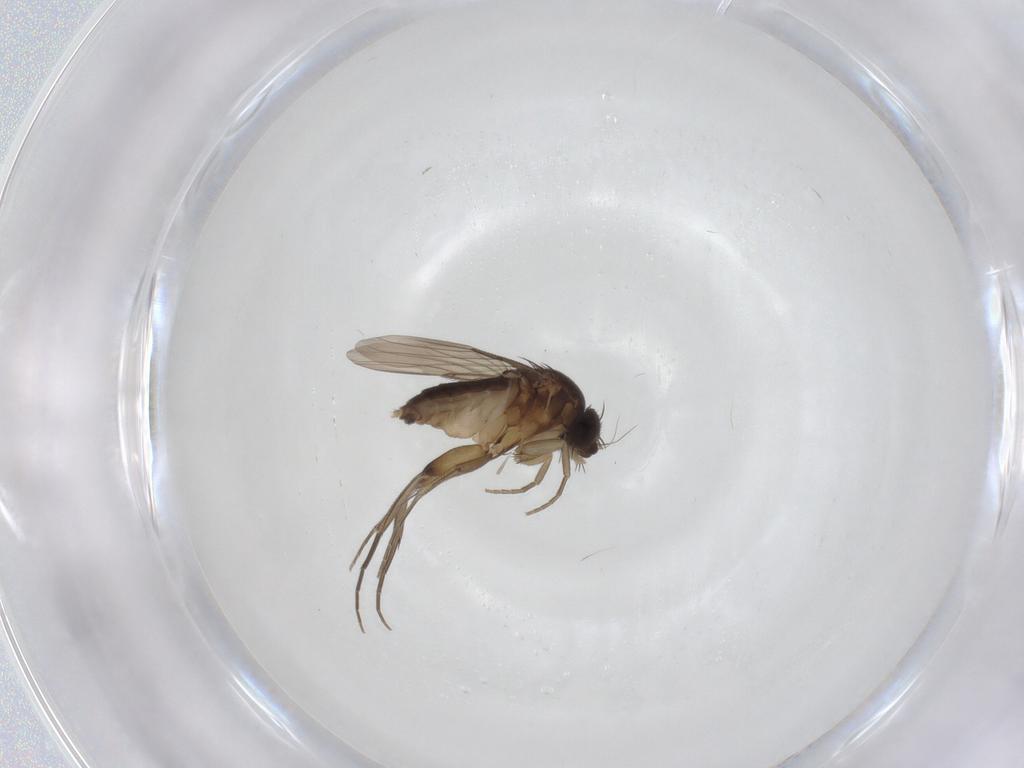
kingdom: Animalia
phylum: Arthropoda
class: Insecta
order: Diptera
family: Phoridae
